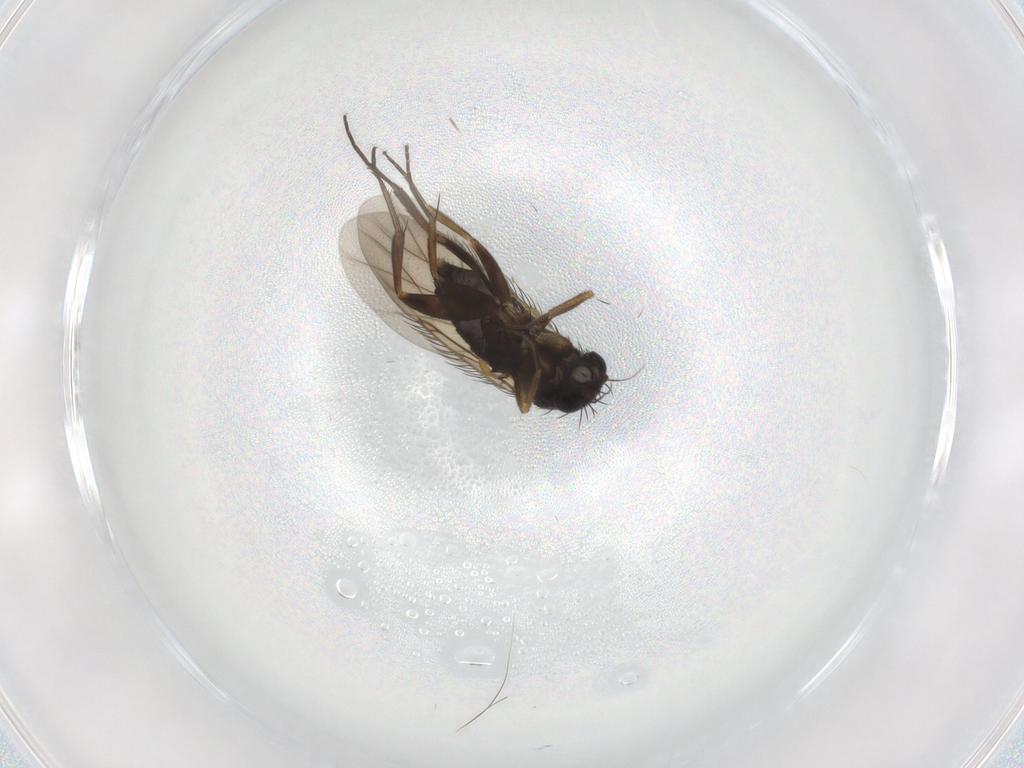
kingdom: Animalia
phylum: Arthropoda
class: Insecta
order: Diptera
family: Phoridae
